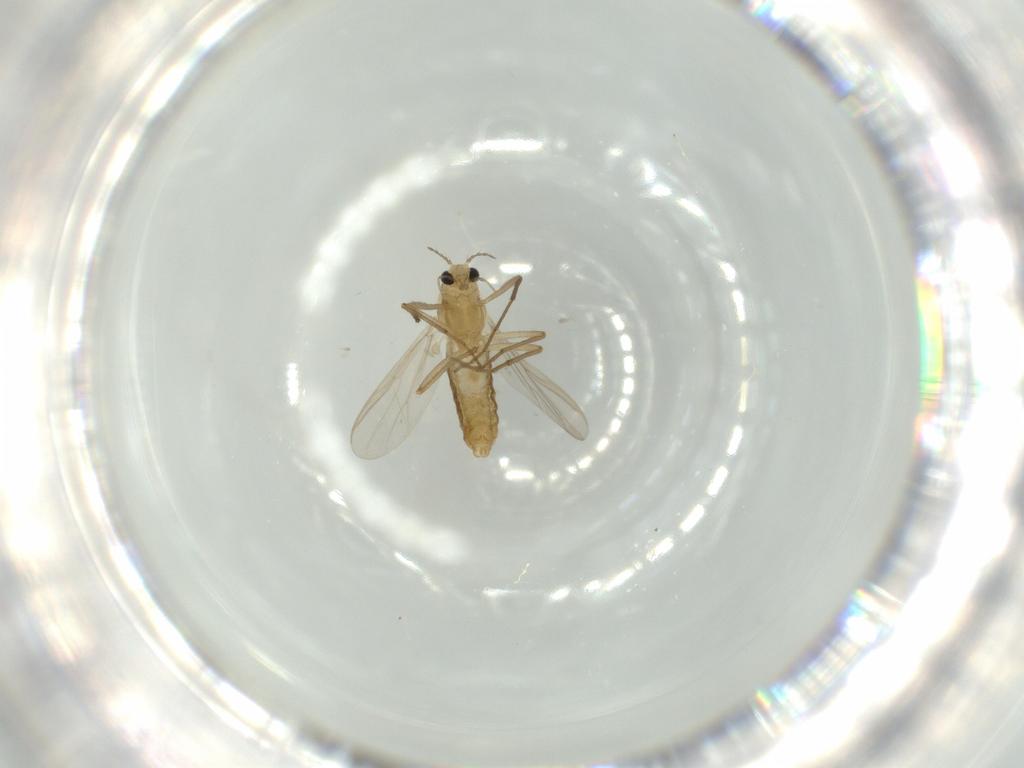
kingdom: Animalia
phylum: Arthropoda
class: Insecta
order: Diptera
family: Chironomidae
